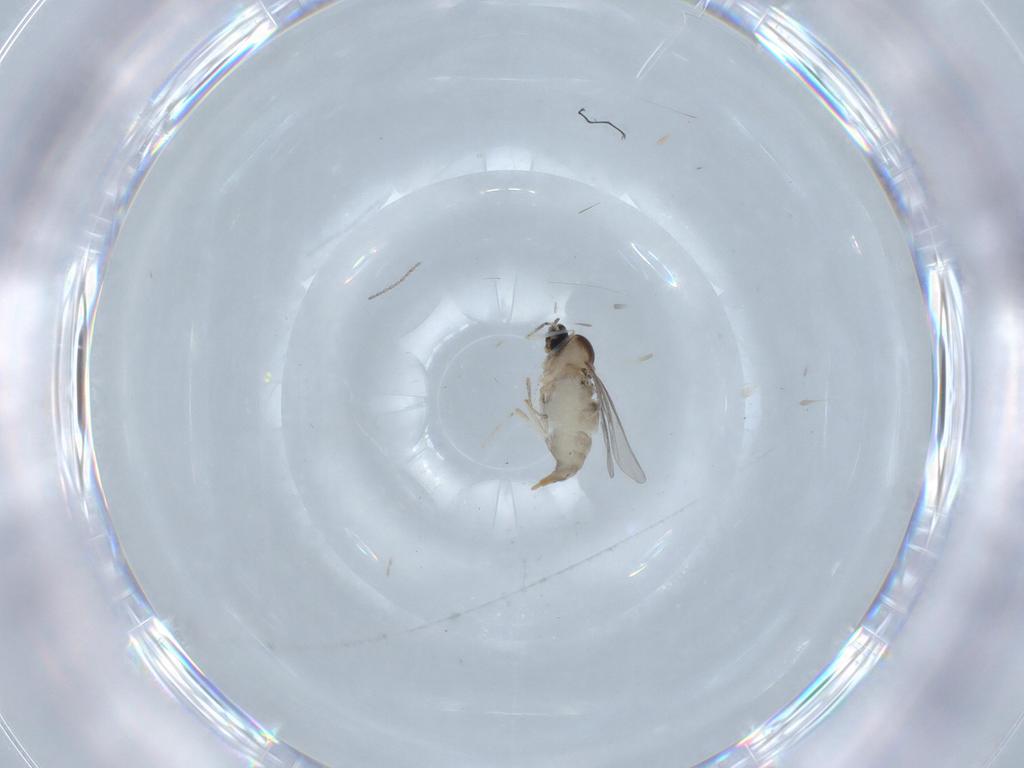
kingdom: Animalia
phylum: Arthropoda
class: Insecta
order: Diptera
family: Cecidomyiidae
